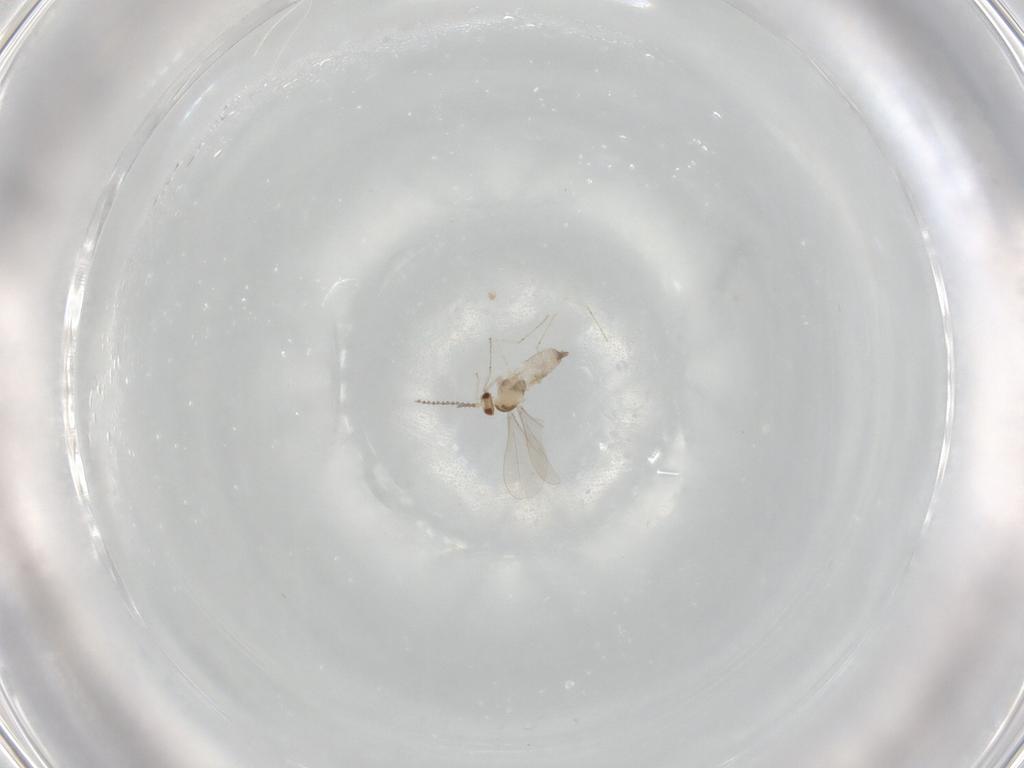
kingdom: Animalia
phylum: Arthropoda
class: Insecta
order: Diptera
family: Cecidomyiidae
